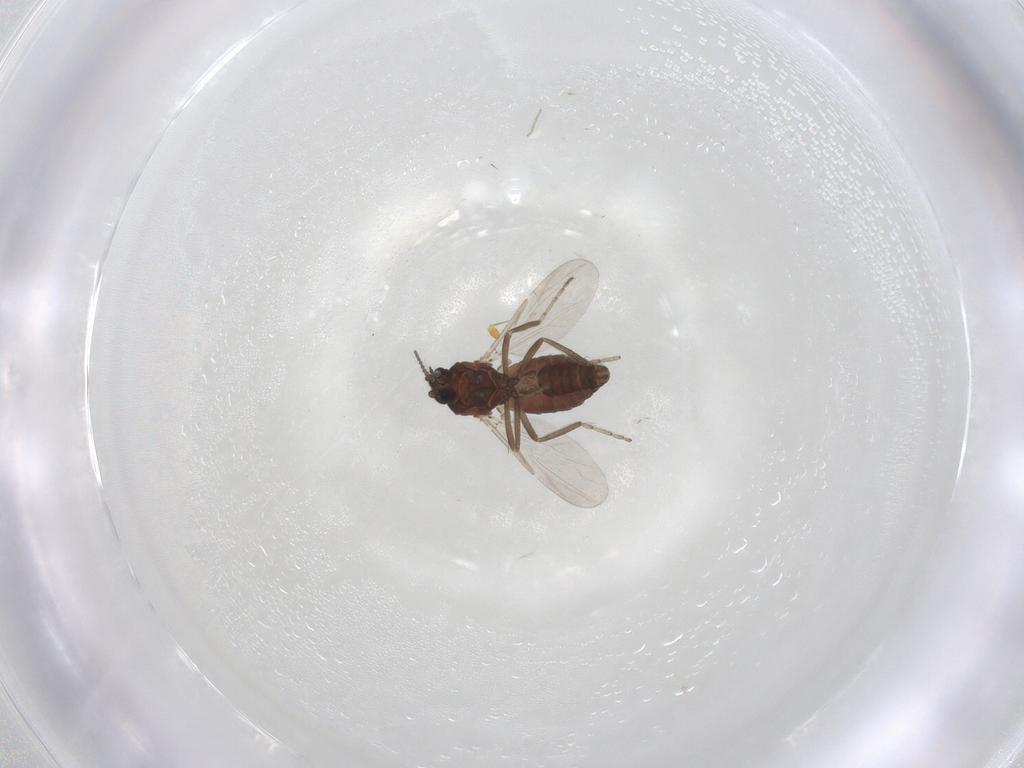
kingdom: Animalia
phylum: Arthropoda
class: Insecta
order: Diptera
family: Ceratopogonidae
